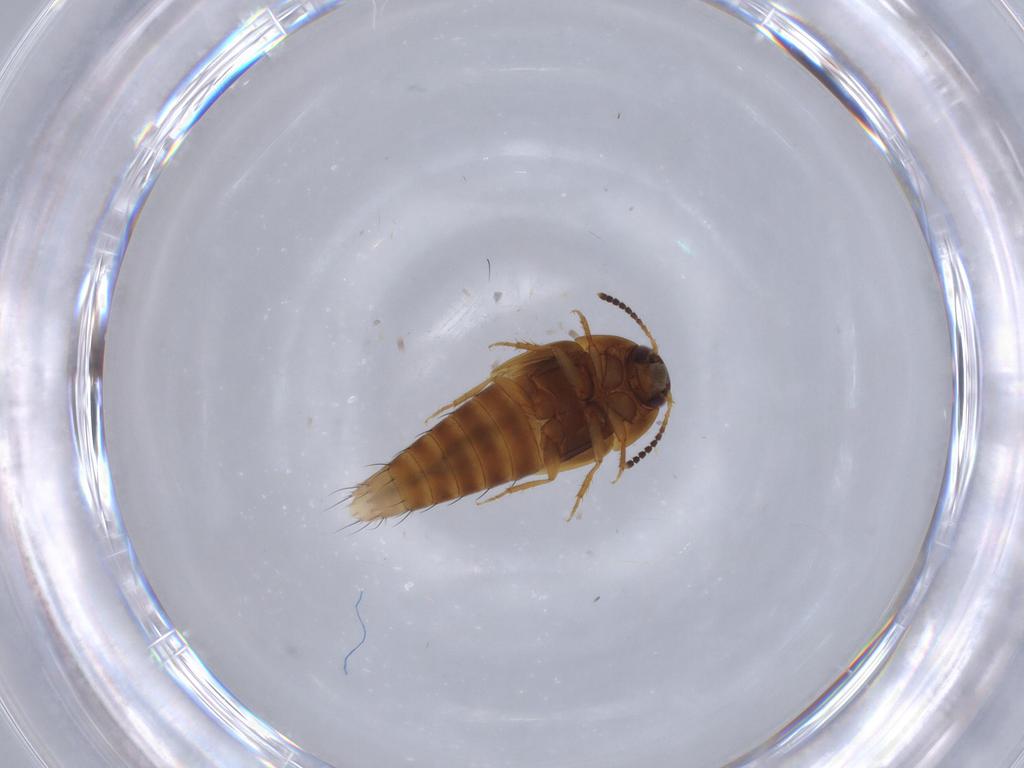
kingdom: Animalia
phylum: Arthropoda
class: Insecta
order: Coleoptera
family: Staphylinidae
